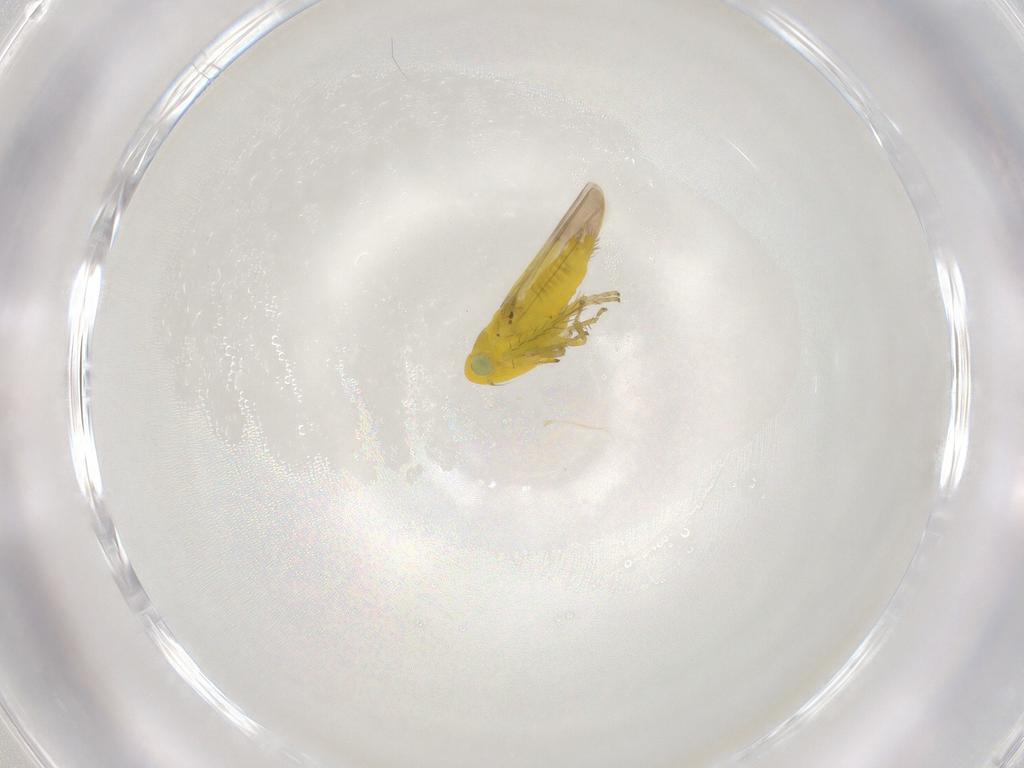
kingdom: Animalia
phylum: Arthropoda
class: Insecta
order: Hemiptera
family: Cicadellidae
